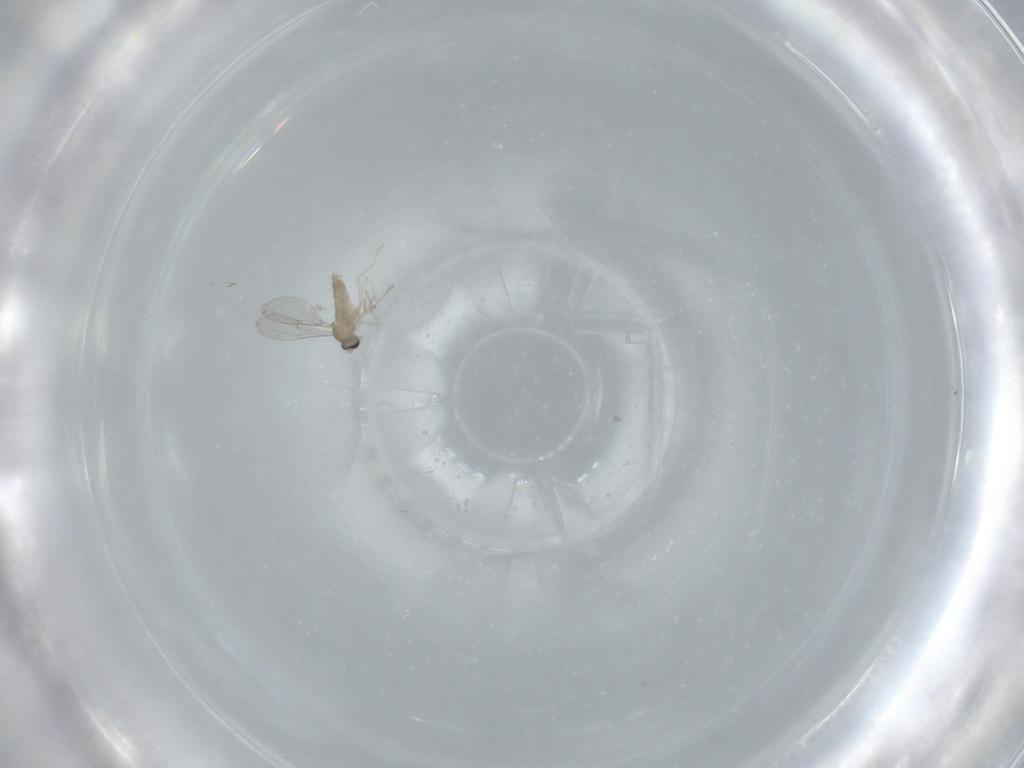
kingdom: Animalia
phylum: Arthropoda
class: Insecta
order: Diptera
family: Cecidomyiidae
